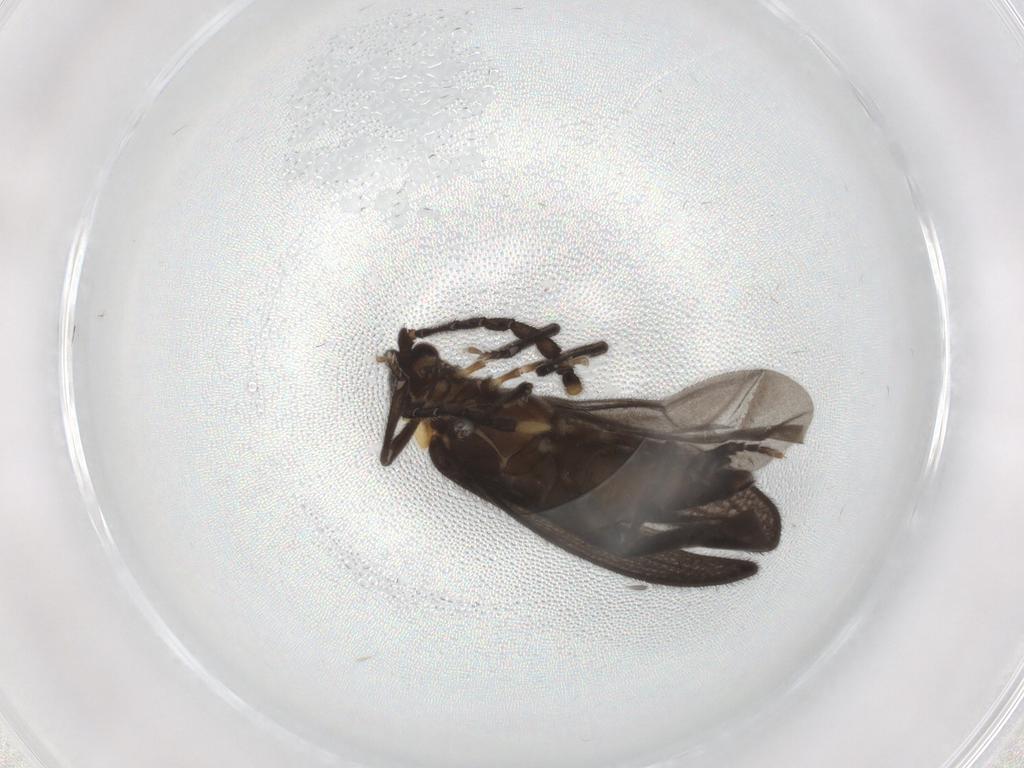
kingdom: Animalia
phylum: Arthropoda
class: Insecta
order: Coleoptera
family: Lycidae
